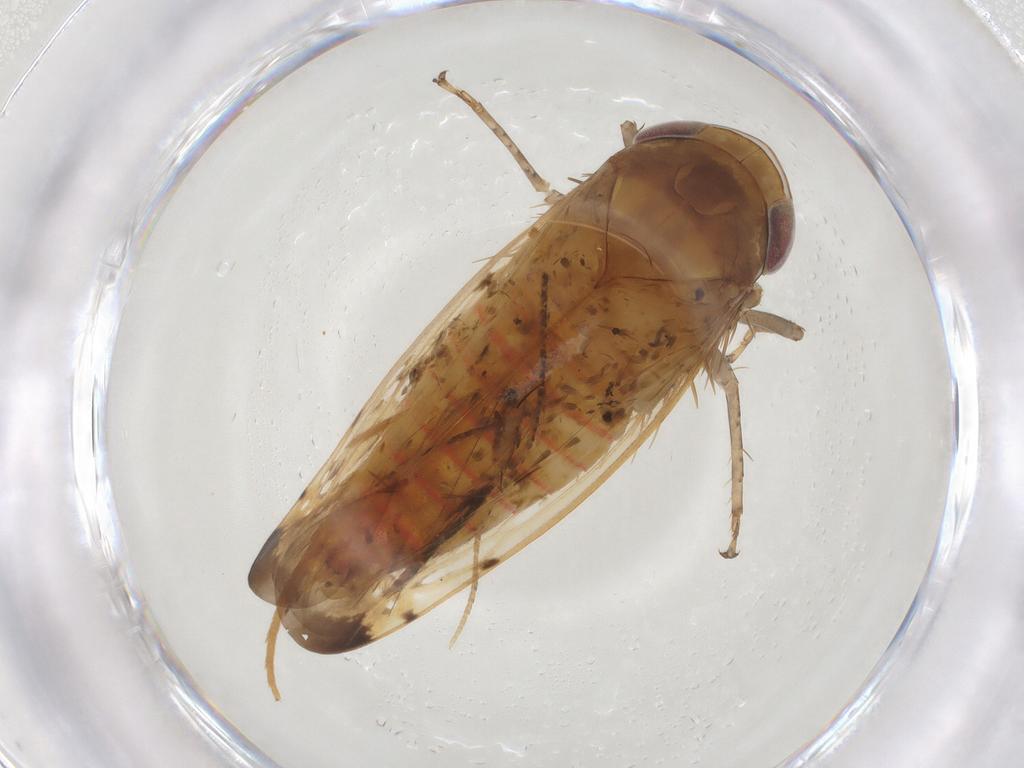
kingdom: Animalia
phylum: Arthropoda
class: Insecta
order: Hemiptera
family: Cicadellidae
